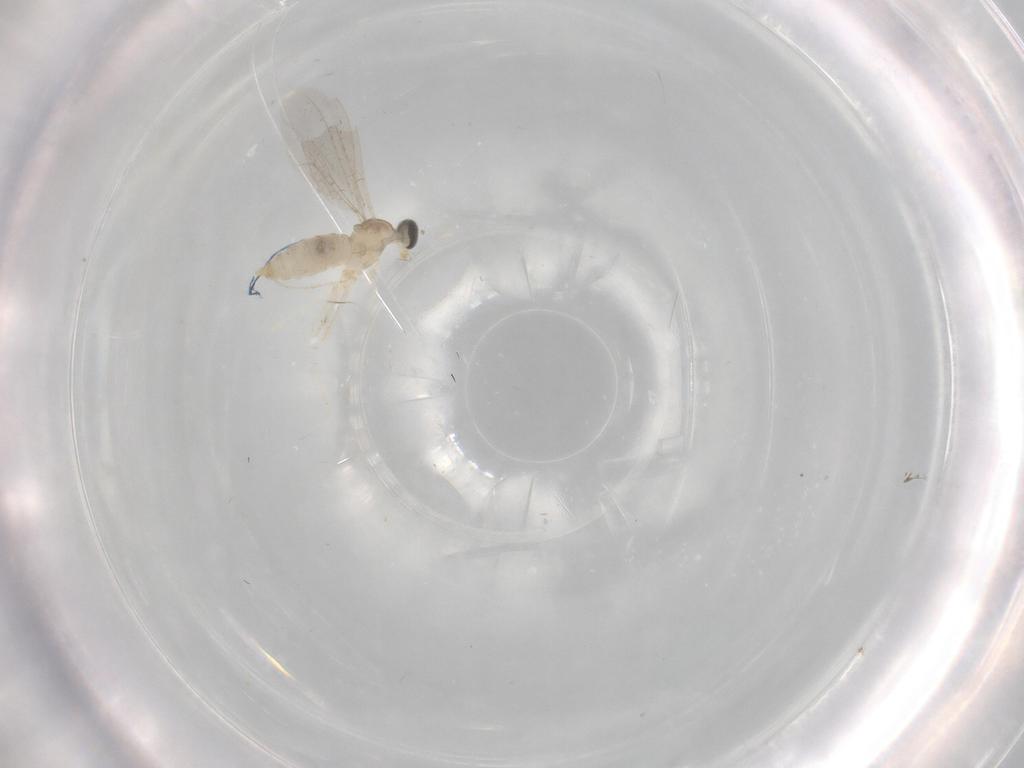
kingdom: Animalia
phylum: Arthropoda
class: Insecta
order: Diptera
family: Cecidomyiidae
